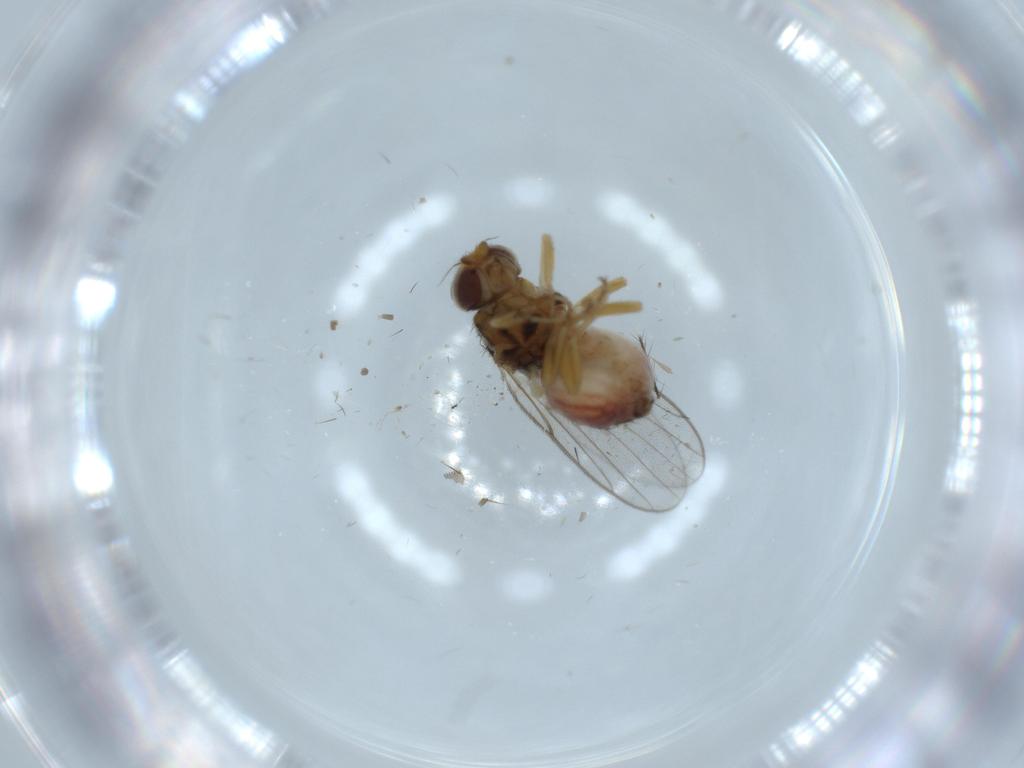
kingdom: Animalia
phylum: Arthropoda
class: Insecta
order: Diptera
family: Chloropidae
